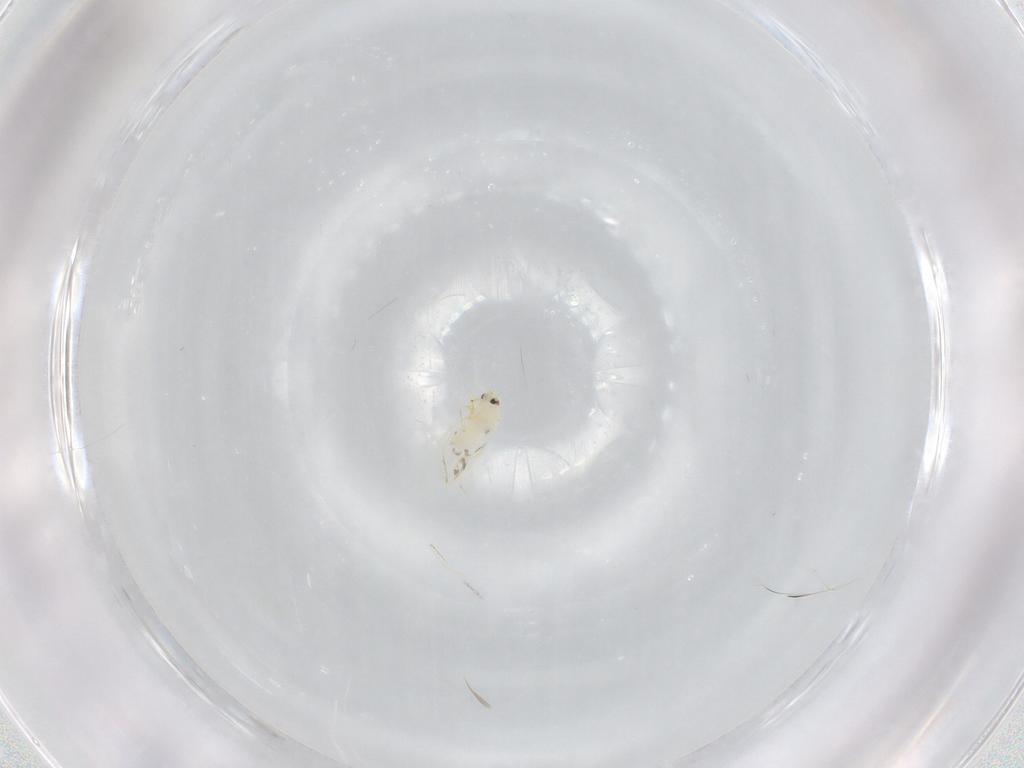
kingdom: Animalia
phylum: Arthropoda
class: Insecta
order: Hemiptera
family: Aleyrodidae
